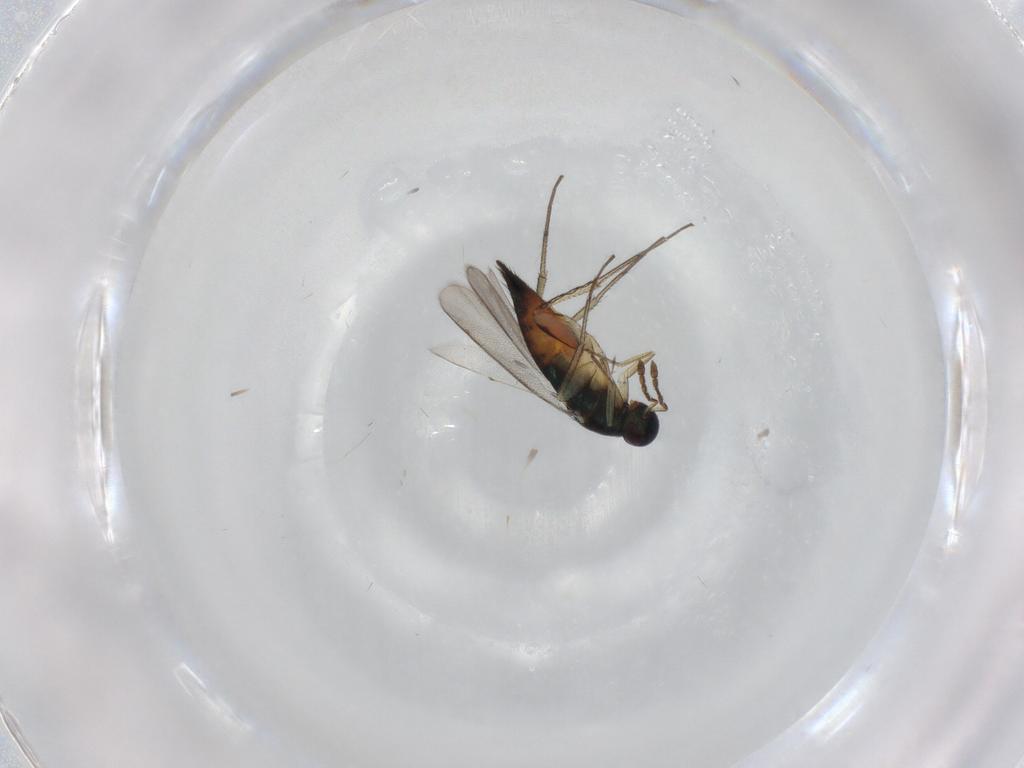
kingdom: Animalia
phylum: Arthropoda
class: Insecta
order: Hymenoptera
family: Eulophidae
